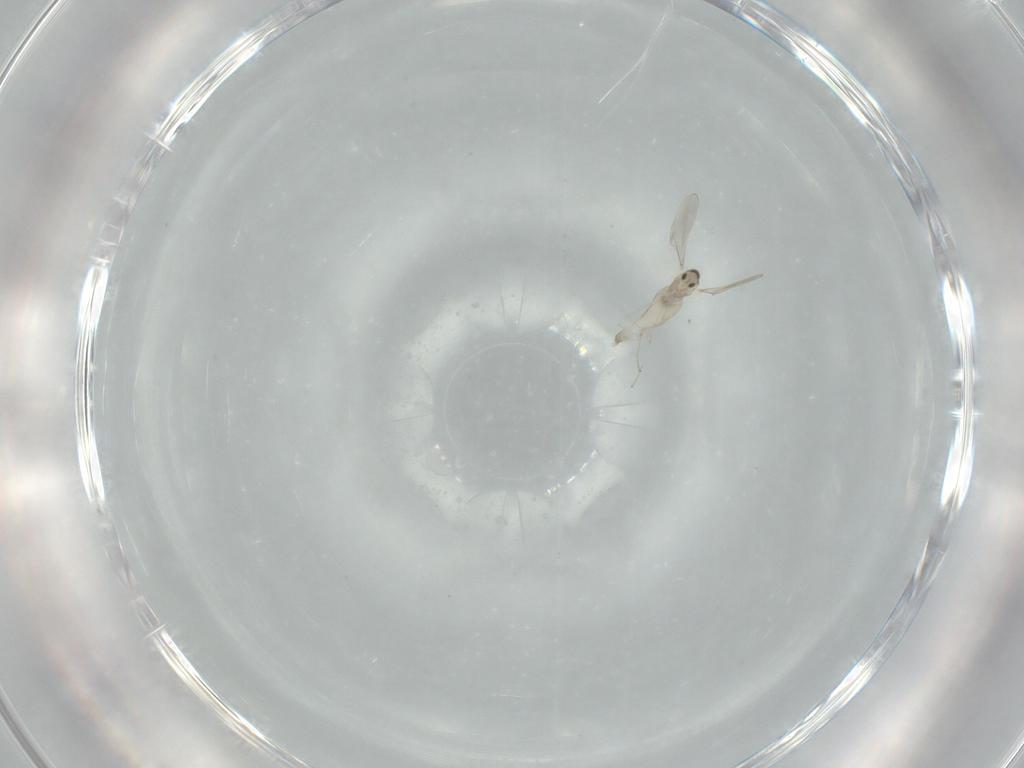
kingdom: Animalia
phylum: Arthropoda
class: Insecta
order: Diptera
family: Cecidomyiidae
